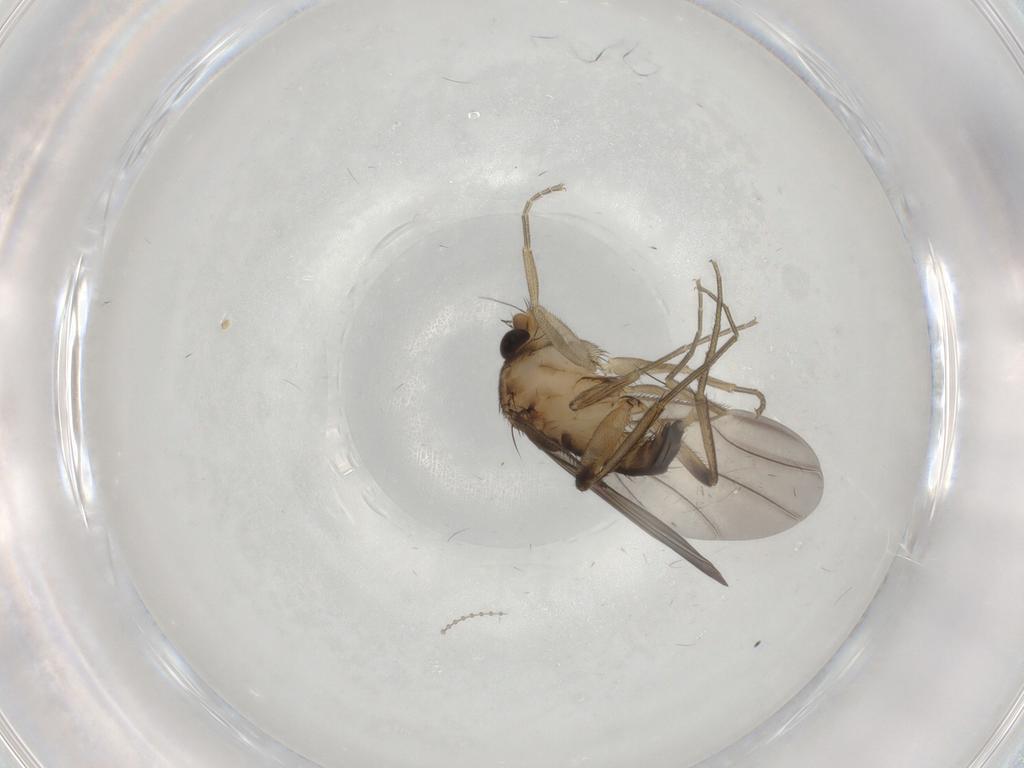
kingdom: Animalia
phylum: Arthropoda
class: Insecta
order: Diptera
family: Phoridae
